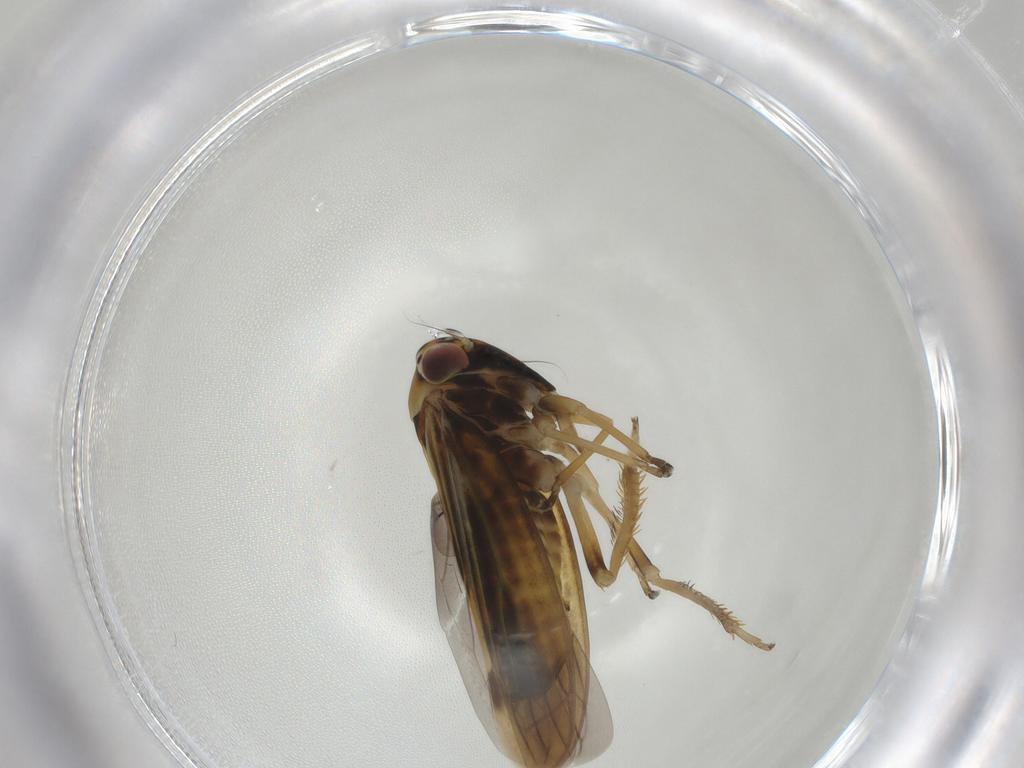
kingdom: Animalia
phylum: Arthropoda
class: Insecta
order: Hemiptera
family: Cicadellidae
